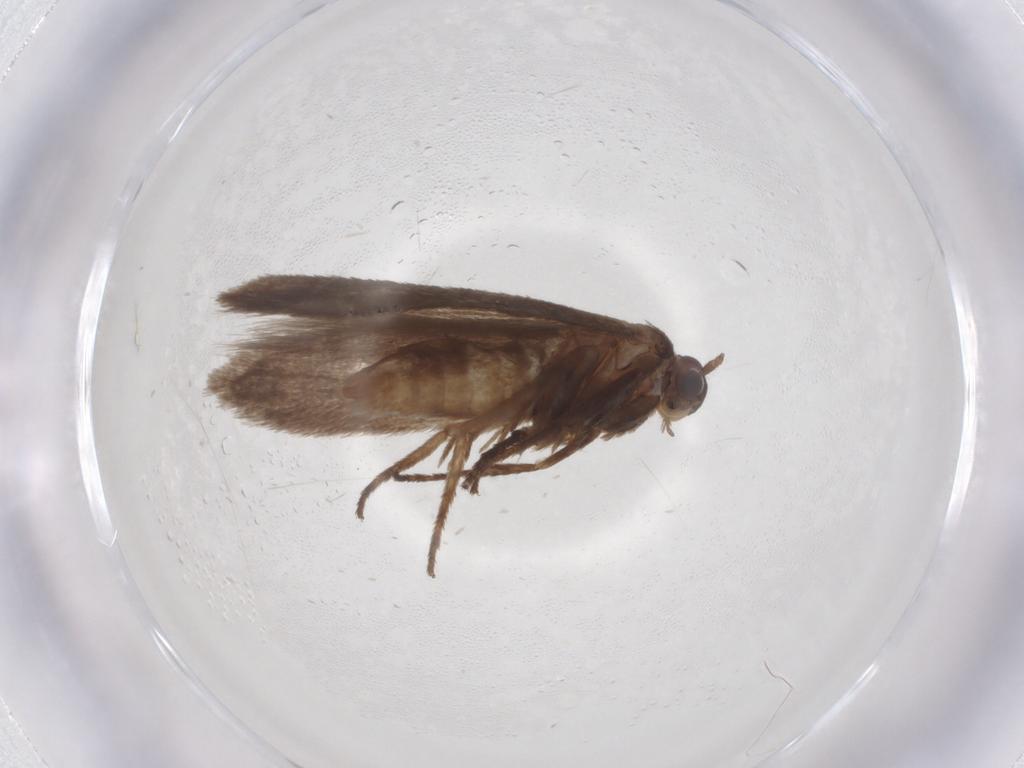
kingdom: Animalia
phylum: Arthropoda
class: Insecta
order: Lepidoptera
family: Limacodidae
